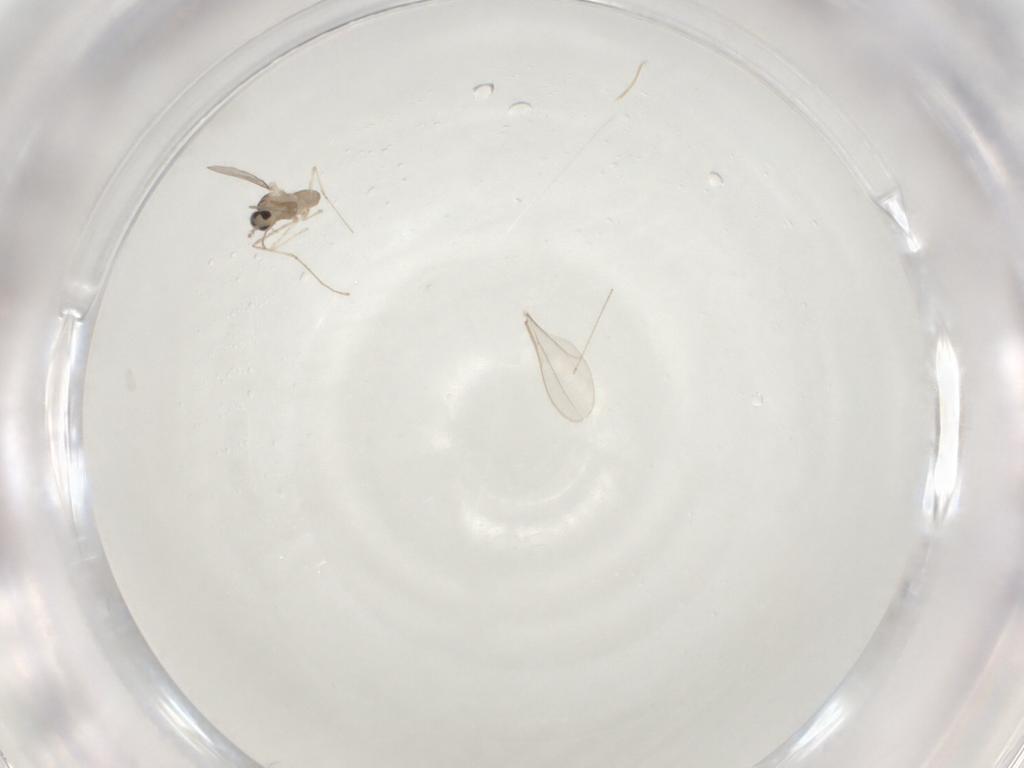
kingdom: Animalia
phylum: Arthropoda
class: Insecta
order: Diptera
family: Cecidomyiidae
